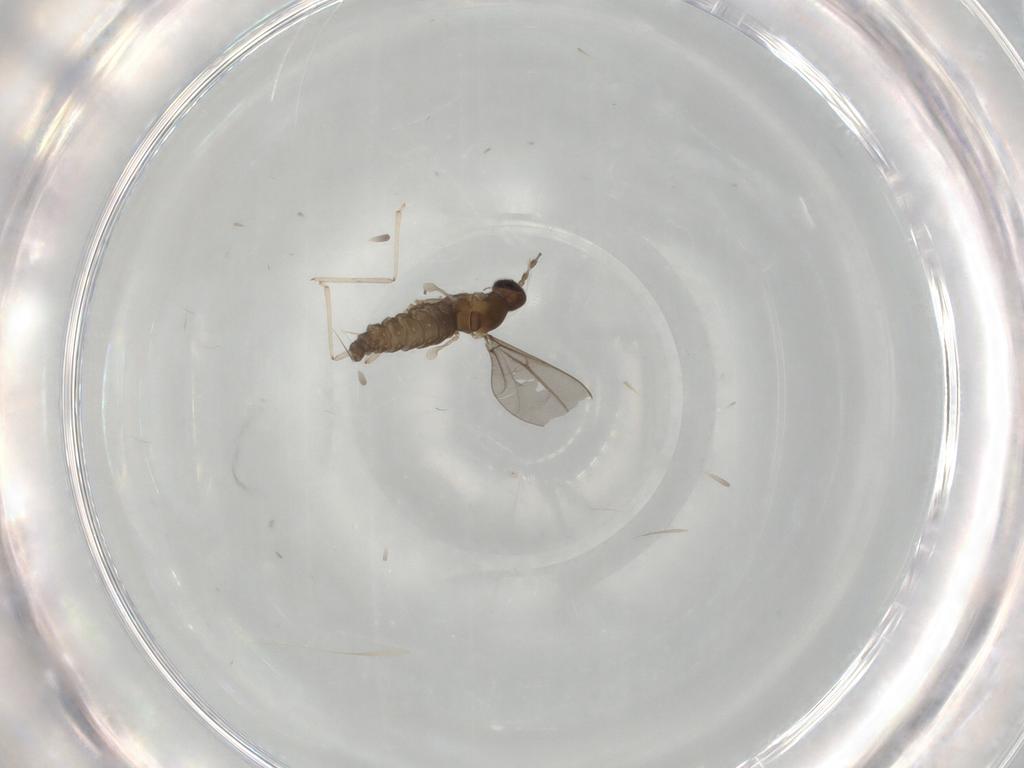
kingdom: Animalia
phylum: Arthropoda
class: Insecta
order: Diptera
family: Cecidomyiidae
